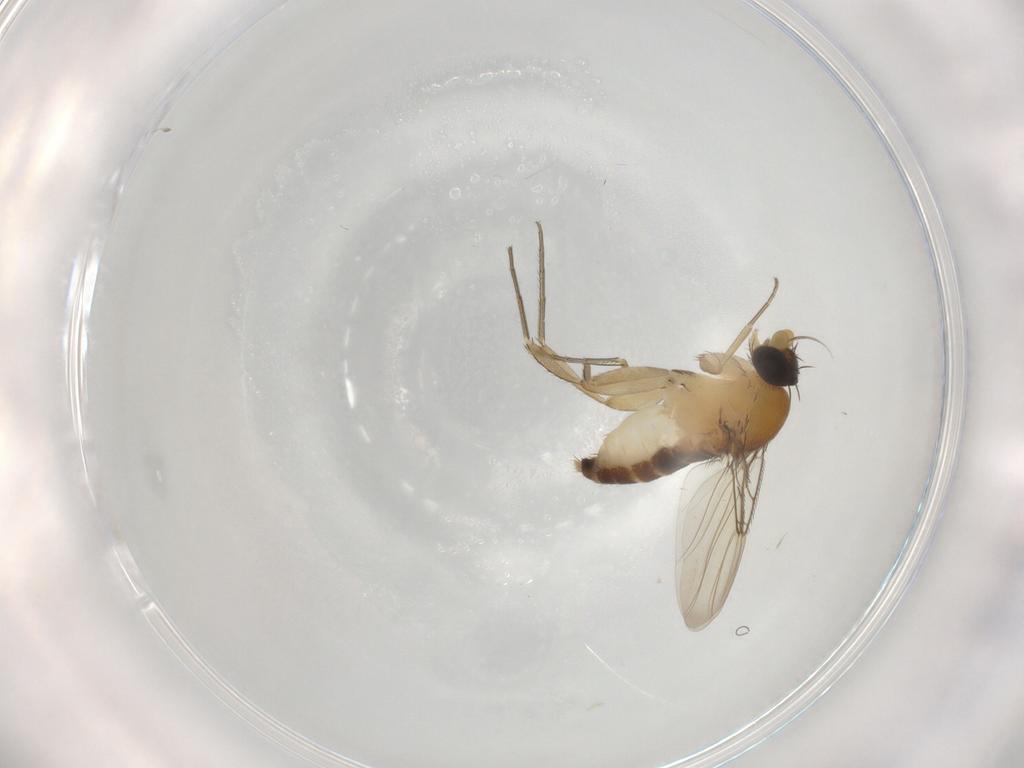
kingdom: Animalia
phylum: Arthropoda
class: Insecta
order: Diptera
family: Phoridae
